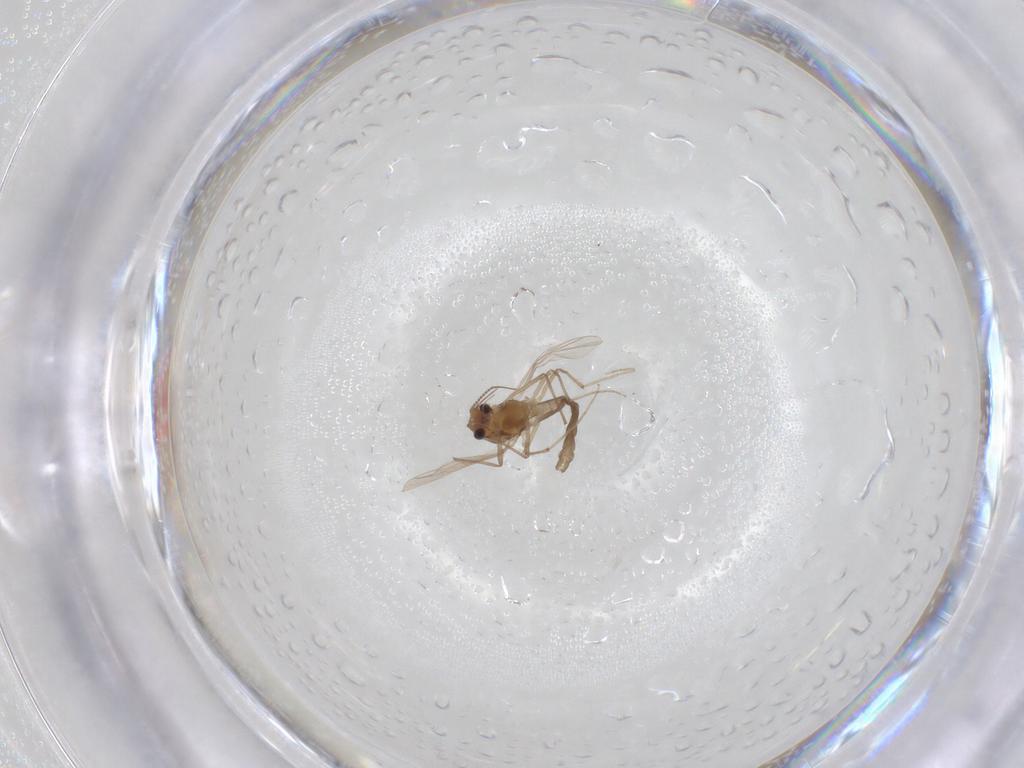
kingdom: Animalia
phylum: Arthropoda
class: Insecta
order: Diptera
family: Chironomidae
